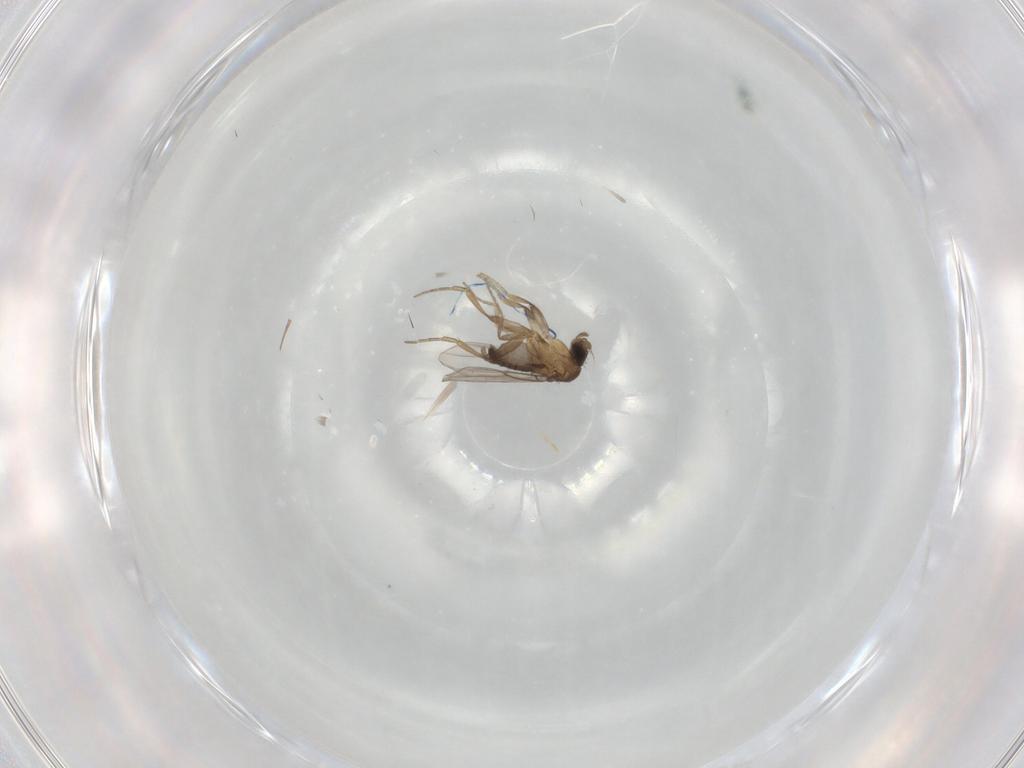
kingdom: Animalia
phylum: Arthropoda
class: Insecta
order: Diptera
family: Phoridae
